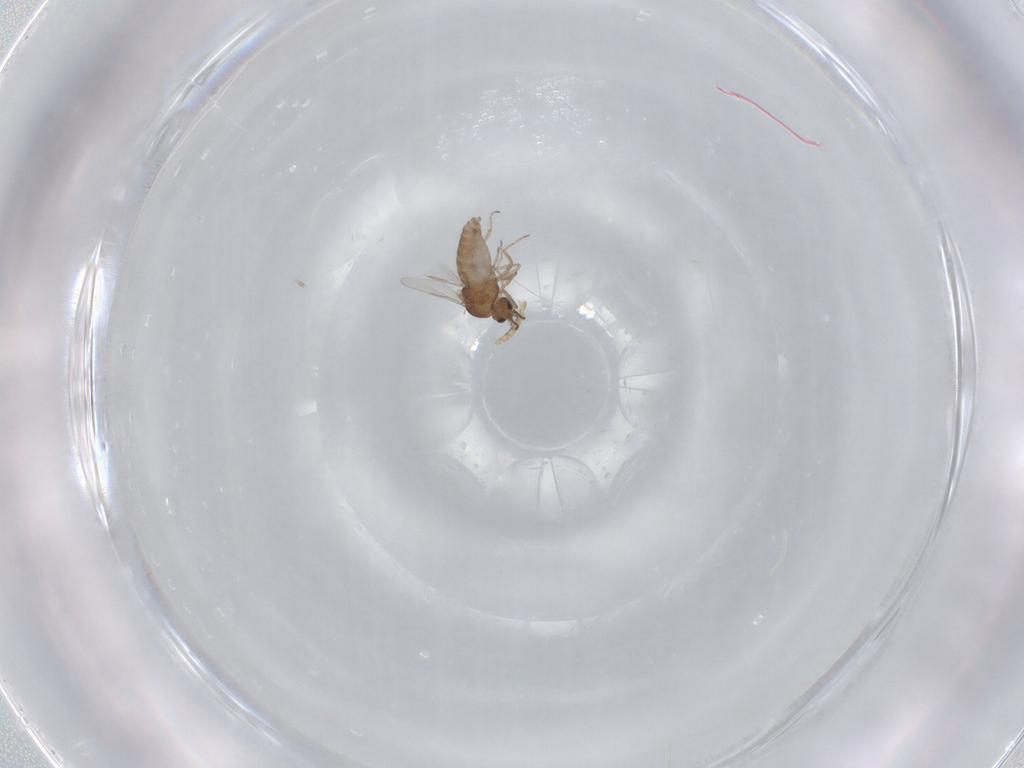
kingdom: Animalia
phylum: Arthropoda
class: Insecta
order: Diptera
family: Ceratopogonidae
